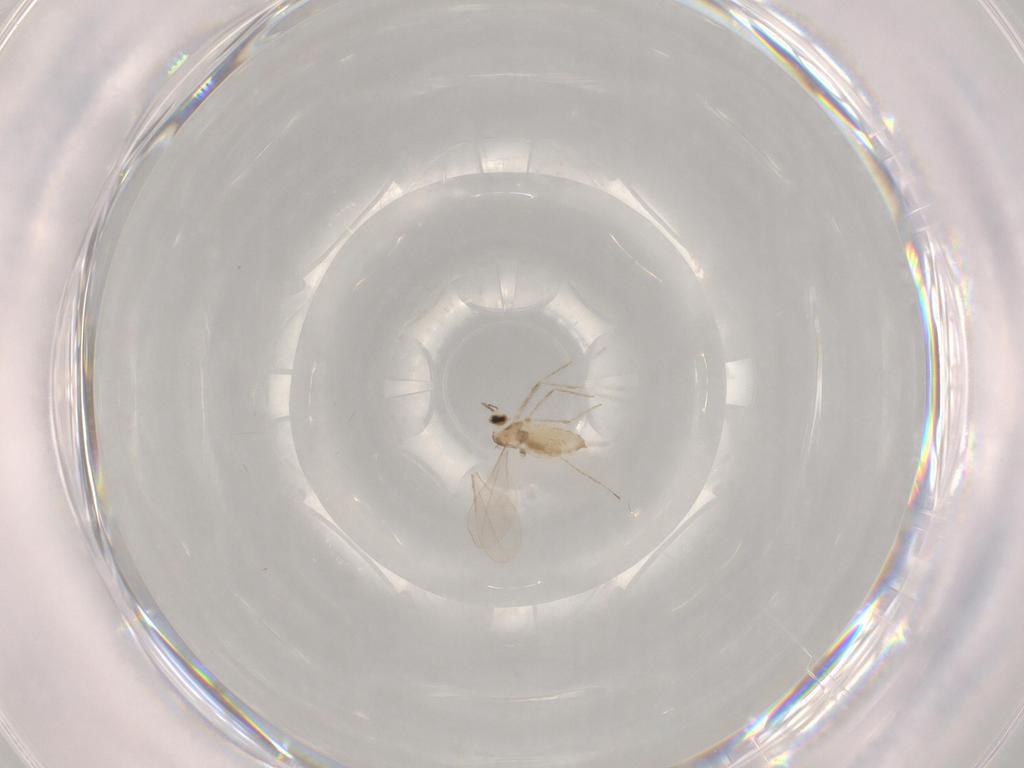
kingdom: Animalia
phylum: Arthropoda
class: Insecta
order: Diptera
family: Cecidomyiidae
